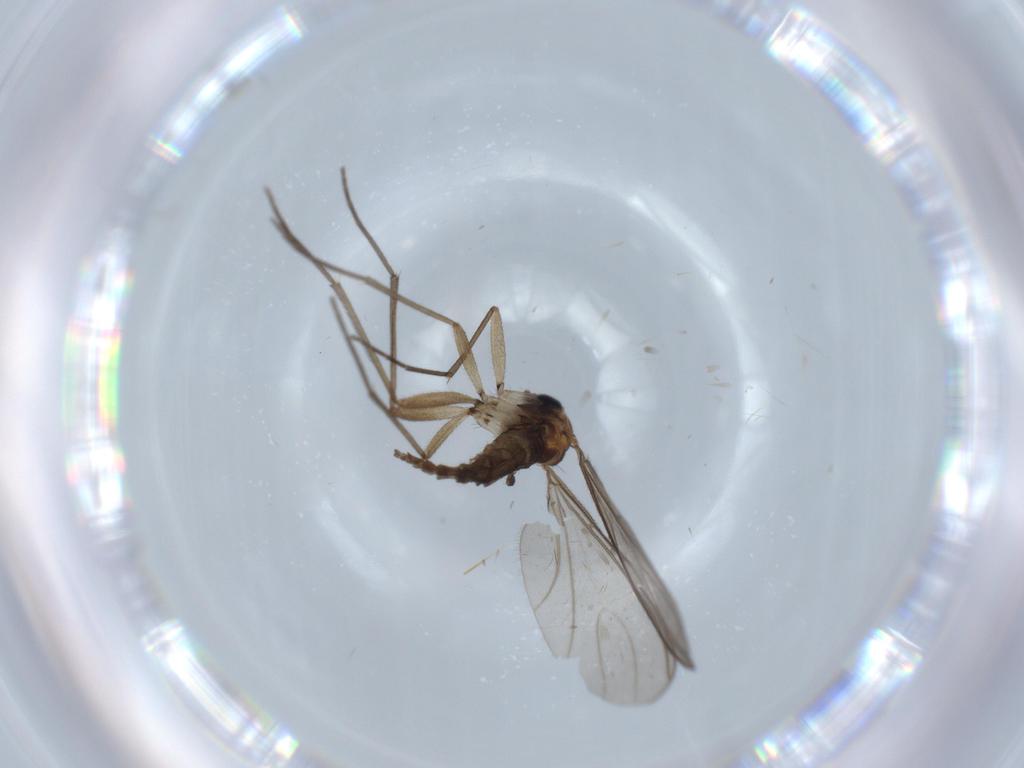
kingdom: Animalia
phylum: Arthropoda
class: Insecta
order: Diptera
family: Sciaridae
